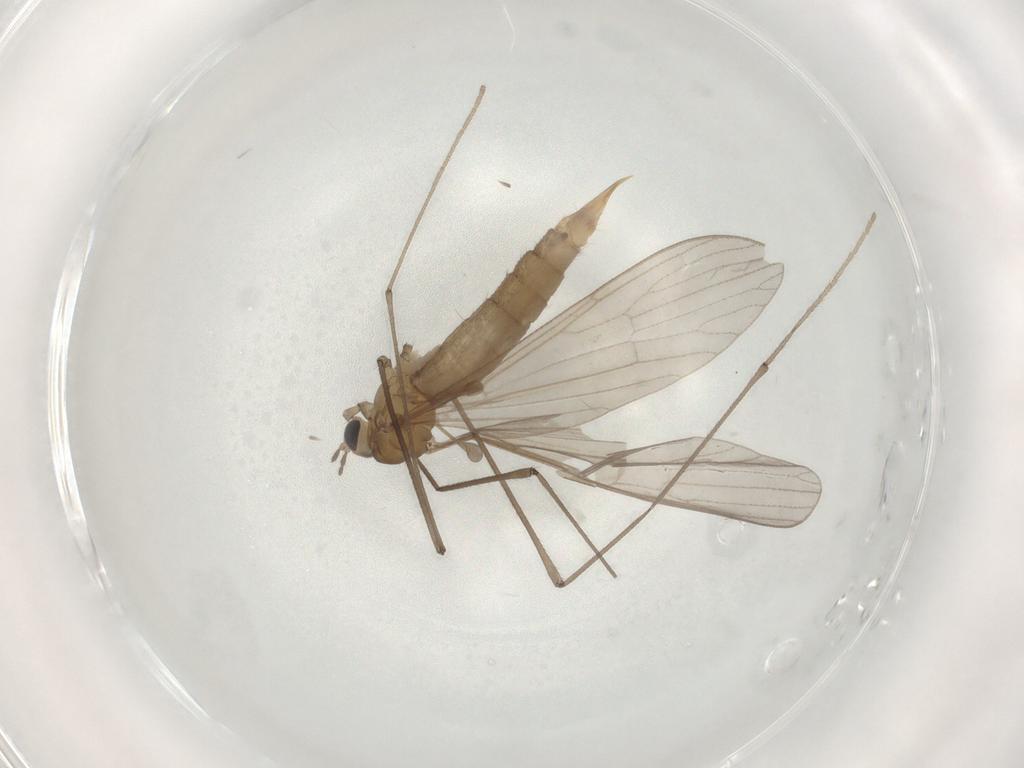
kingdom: Animalia
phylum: Arthropoda
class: Insecta
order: Diptera
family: Limoniidae
